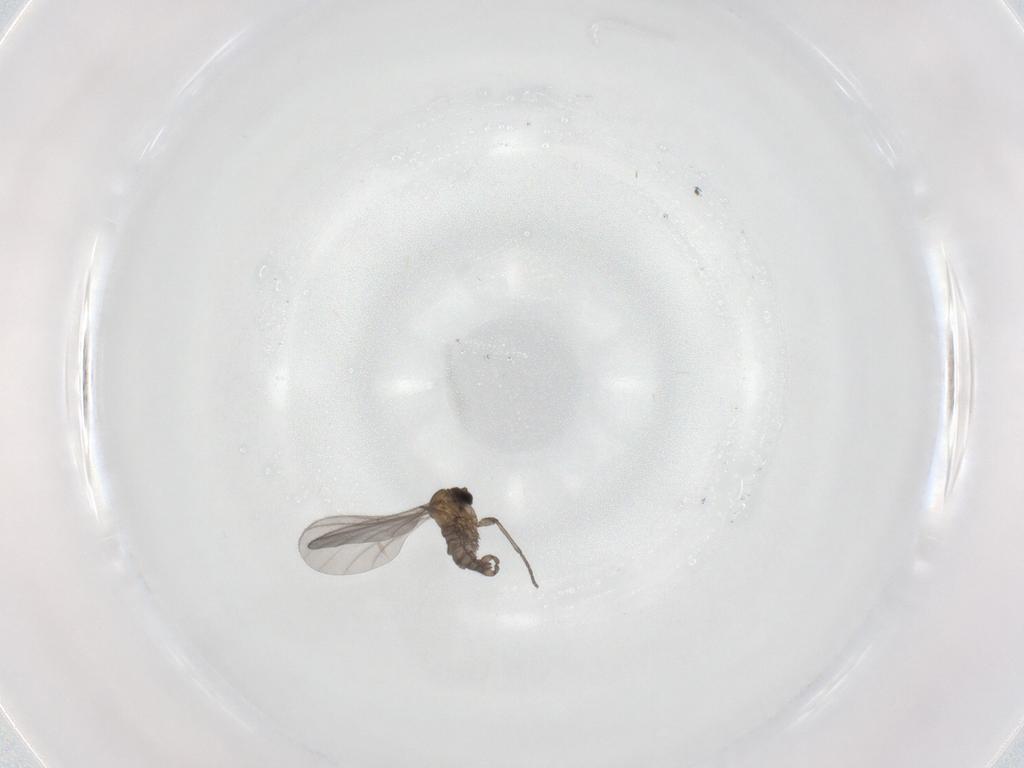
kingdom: Animalia
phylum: Arthropoda
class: Insecta
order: Diptera
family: Sciaridae
